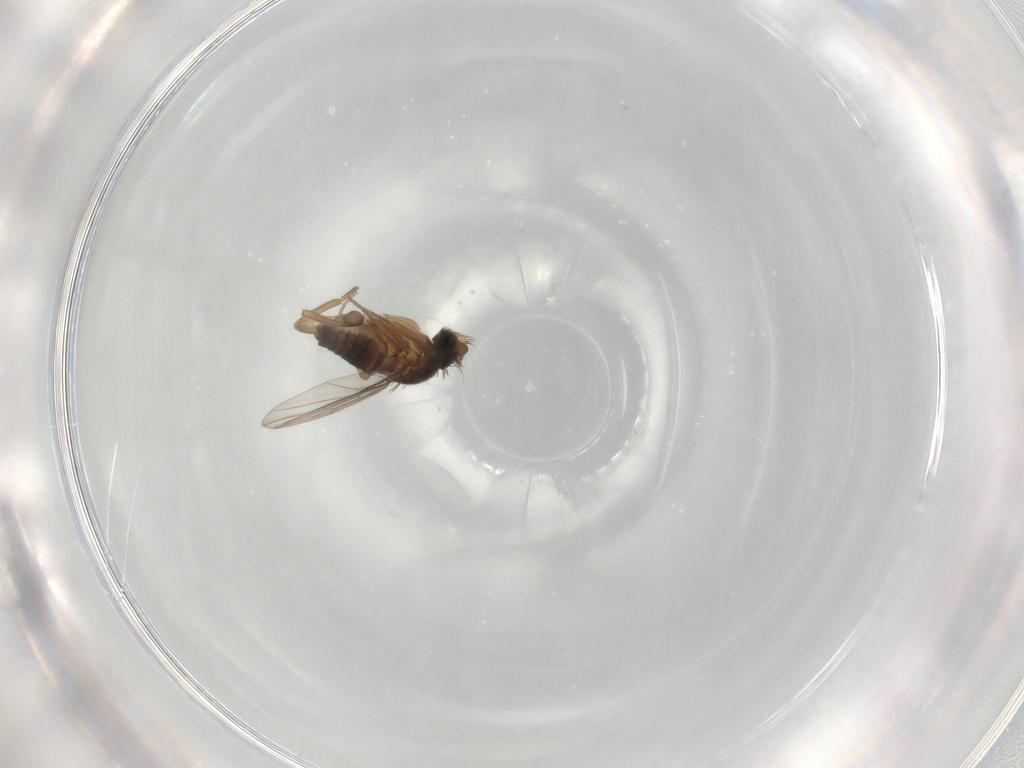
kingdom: Animalia
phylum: Arthropoda
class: Insecta
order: Diptera
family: Phoridae
